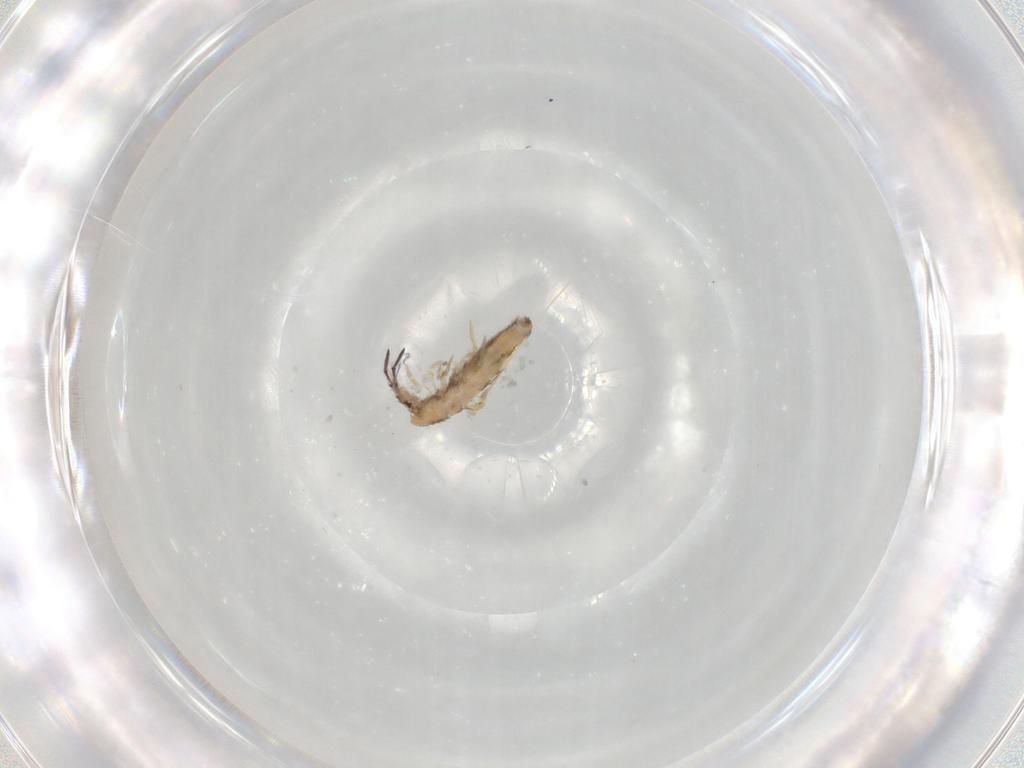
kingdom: Animalia
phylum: Arthropoda
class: Collembola
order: Entomobryomorpha
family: Entomobryidae
